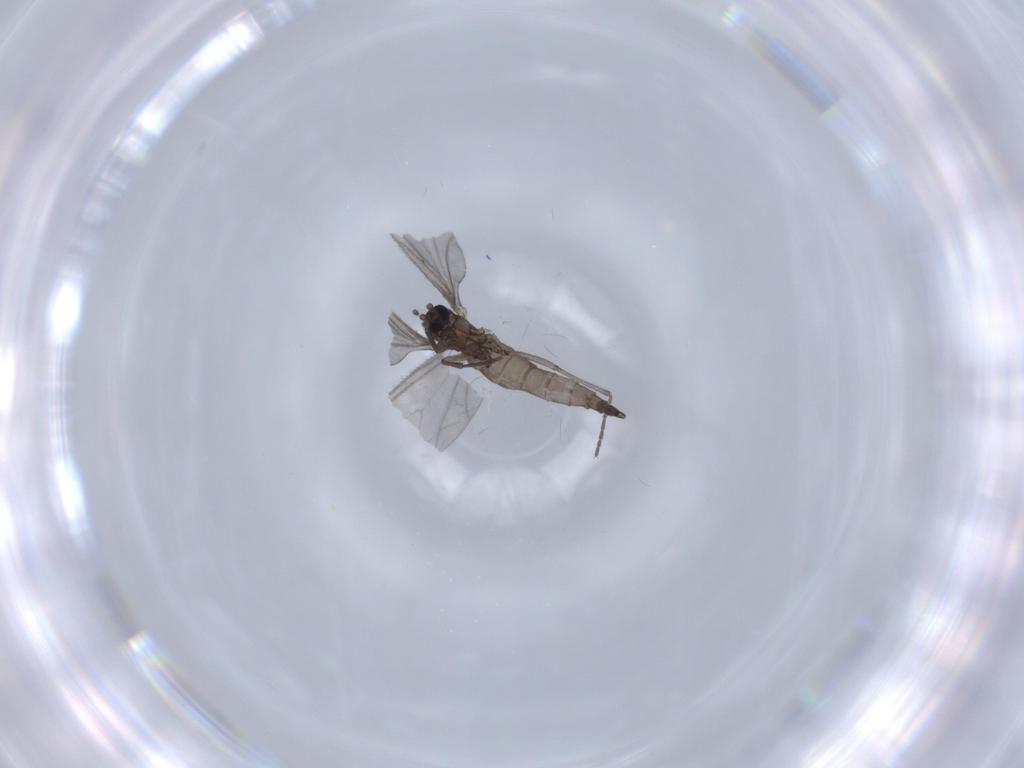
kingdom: Animalia
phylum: Arthropoda
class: Insecta
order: Diptera
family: Sciaridae
